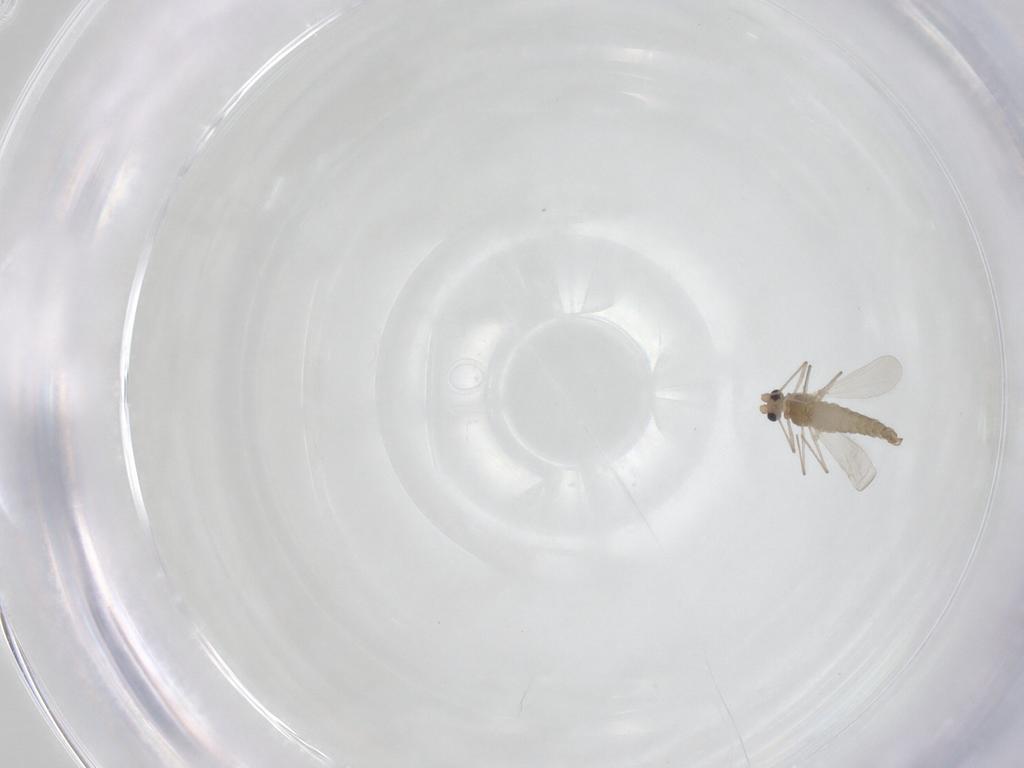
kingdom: Animalia
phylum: Arthropoda
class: Insecta
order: Diptera
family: Chironomidae
